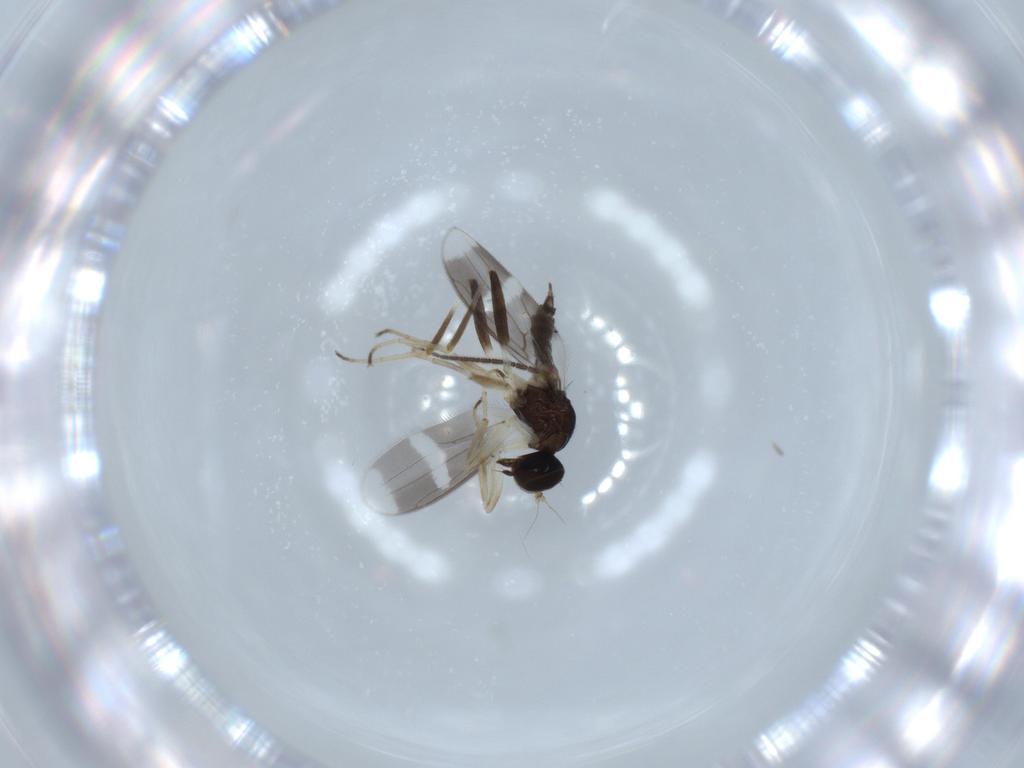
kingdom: Animalia
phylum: Arthropoda
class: Insecta
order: Diptera
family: Hybotidae
